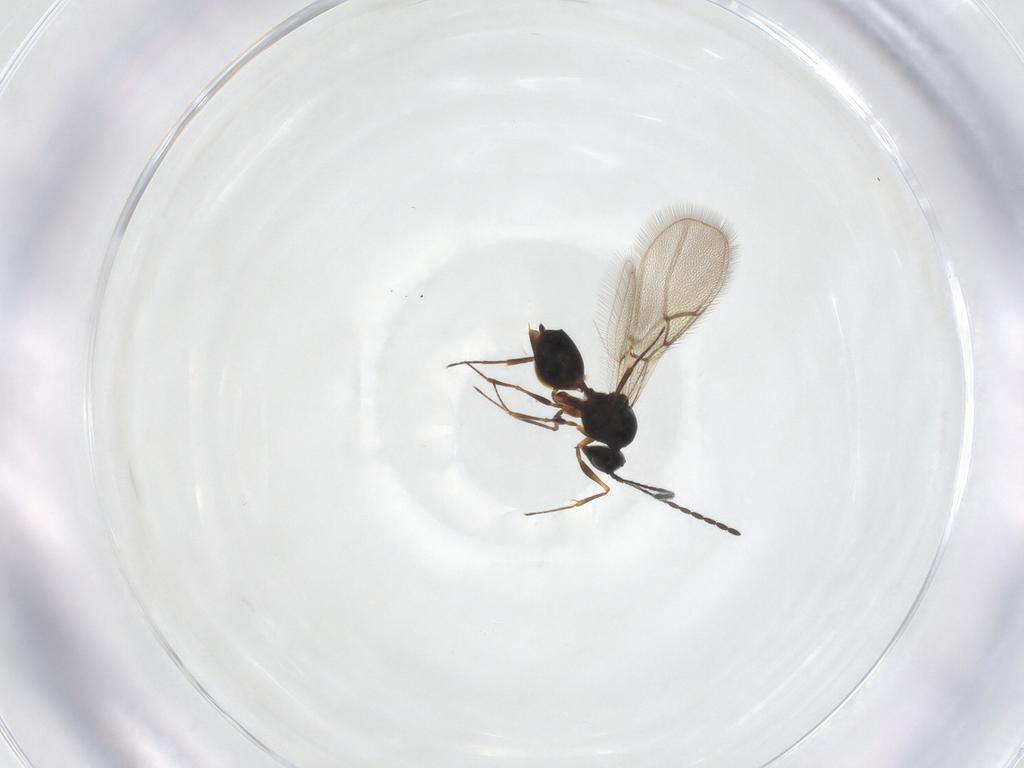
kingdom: Animalia
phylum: Arthropoda
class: Insecta
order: Hymenoptera
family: Figitidae
